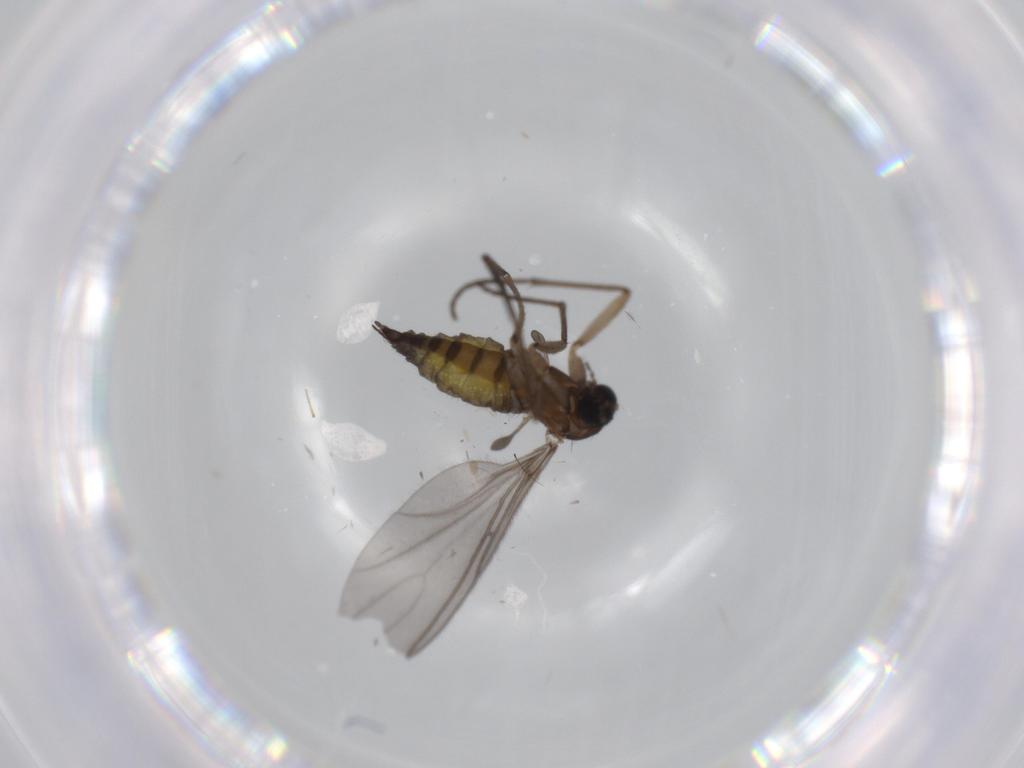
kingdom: Animalia
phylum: Arthropoda
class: Insecta
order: Diptera
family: Sciaridae
